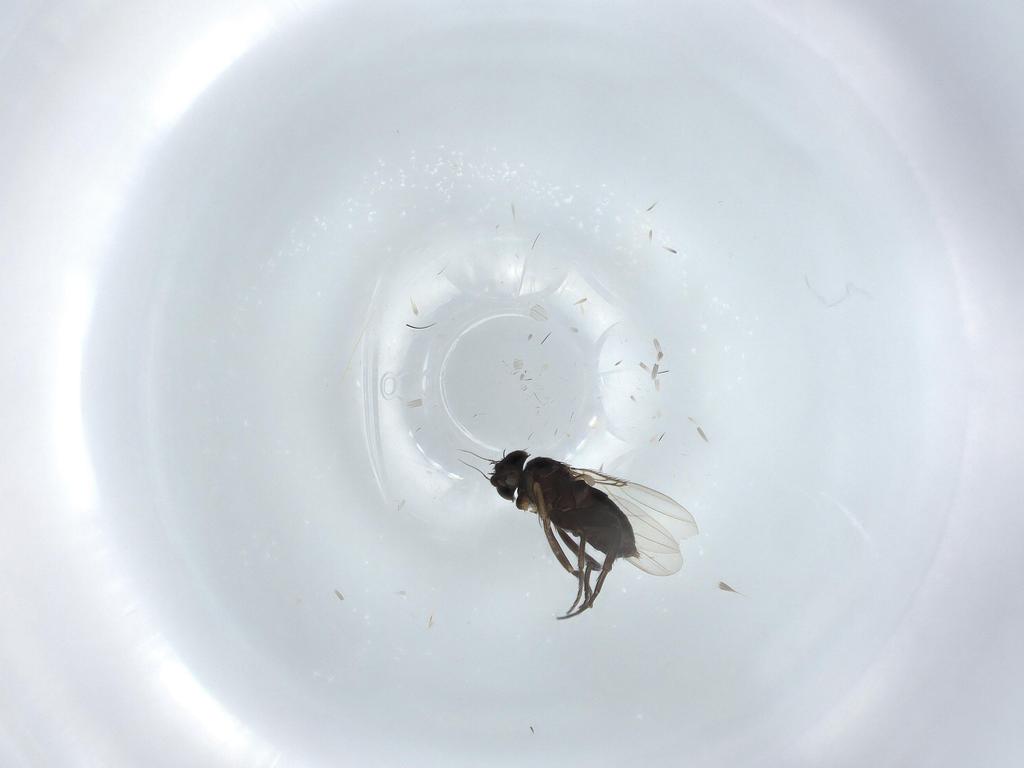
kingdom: Animalia
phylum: Arthropoda
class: Insecta
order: Diptera
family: Phoridae
